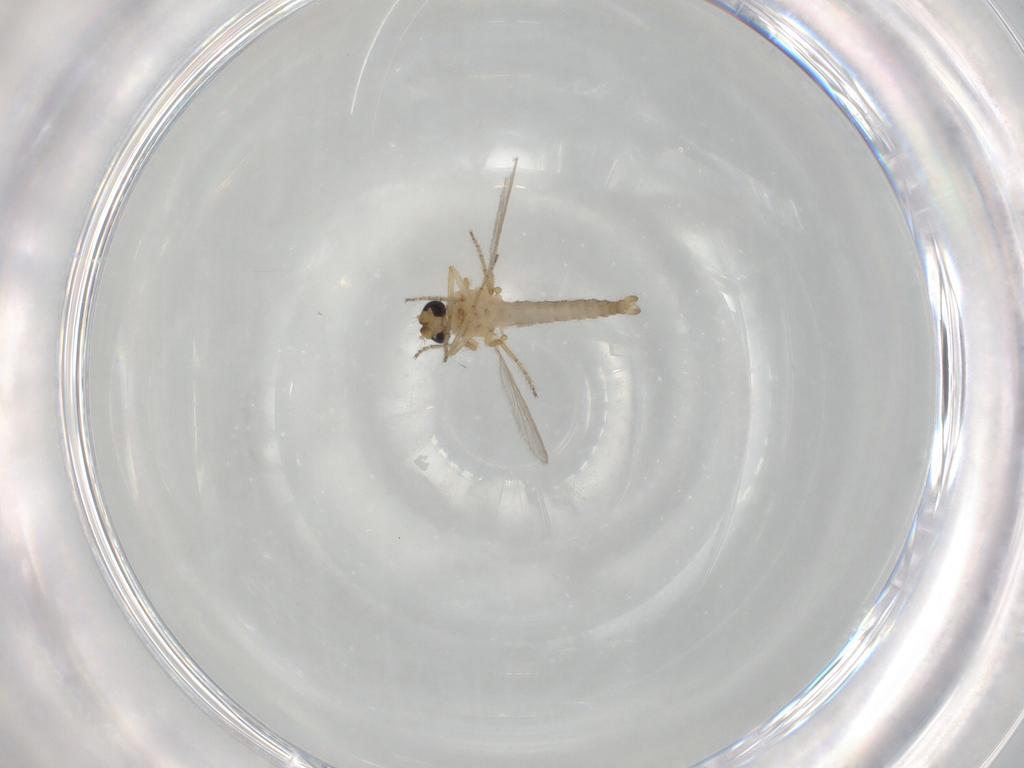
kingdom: Animalia
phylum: Arthropoda
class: Insecta
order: Diptera
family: Ceratopogonidae
